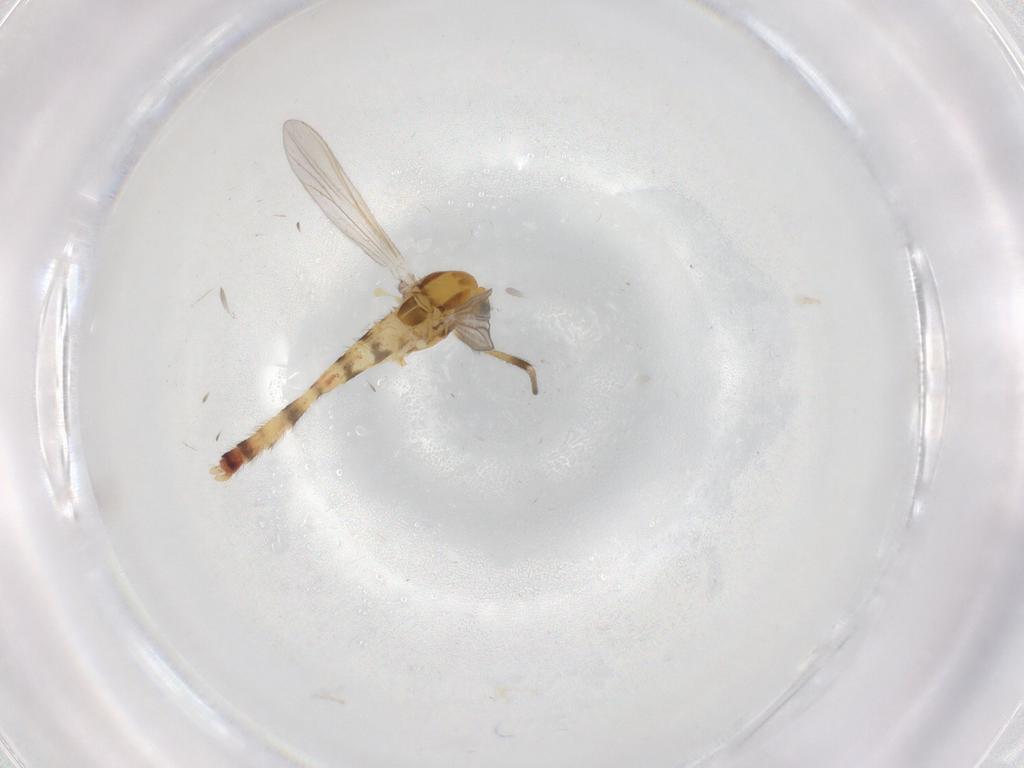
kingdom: Animalia
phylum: Arthropoda
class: Insecta
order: Diptera
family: Chironomidae
